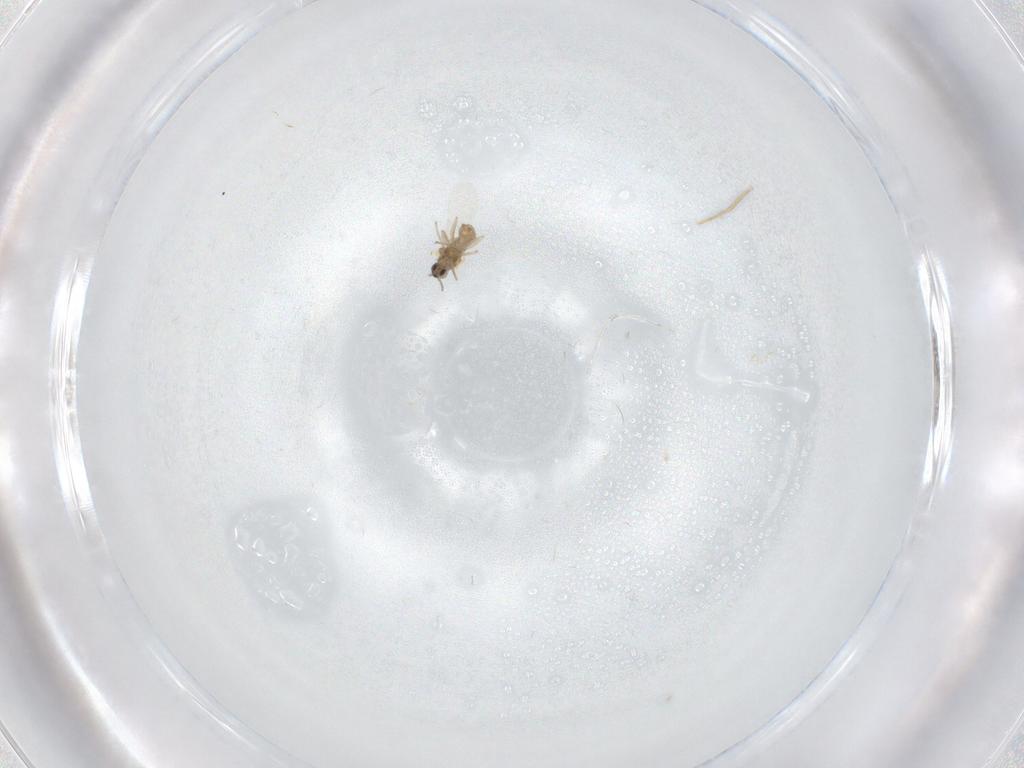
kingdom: Animalia
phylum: Arthropoda
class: Insecta
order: Diptera
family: Cecidomyiidae
